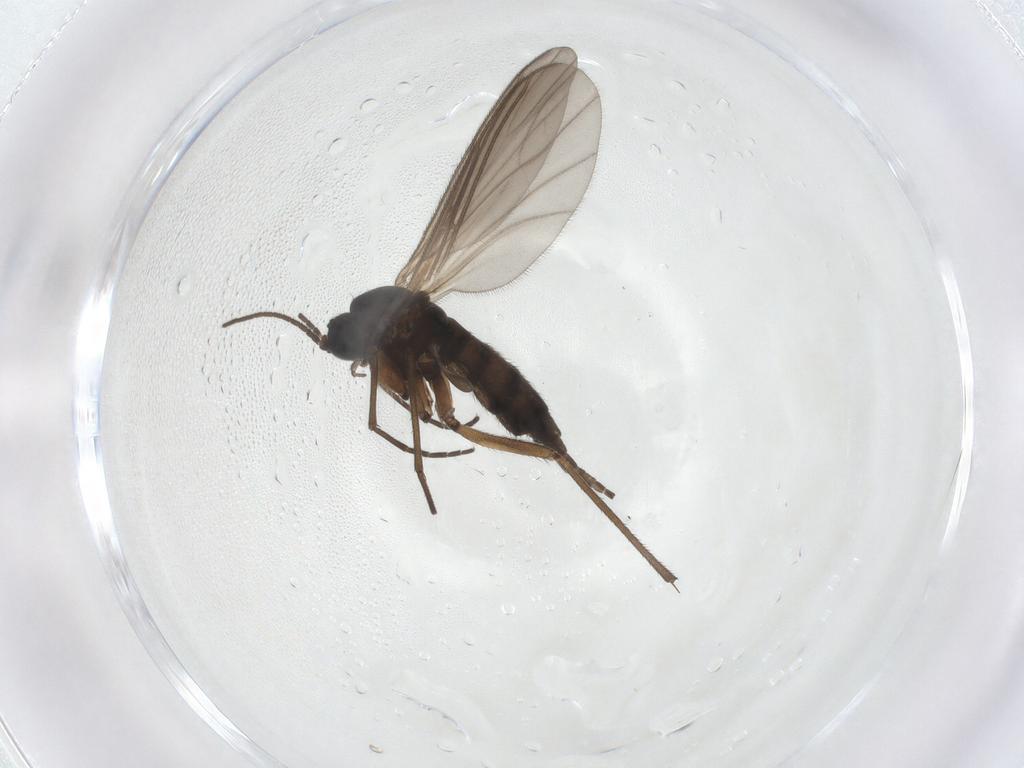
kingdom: Animalia
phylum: Arthropoda
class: Insecta
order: Diptera
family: Sciaridae
